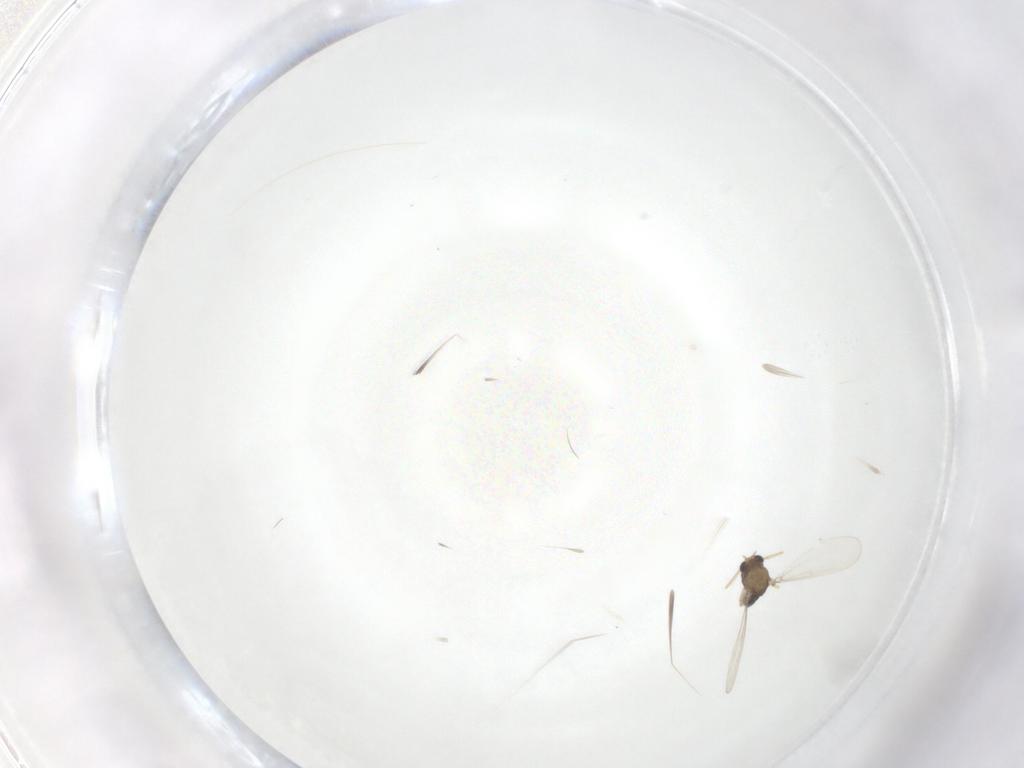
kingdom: Animalia
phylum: Arthropoda
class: Insecta
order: Diptera
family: Chironomidae
